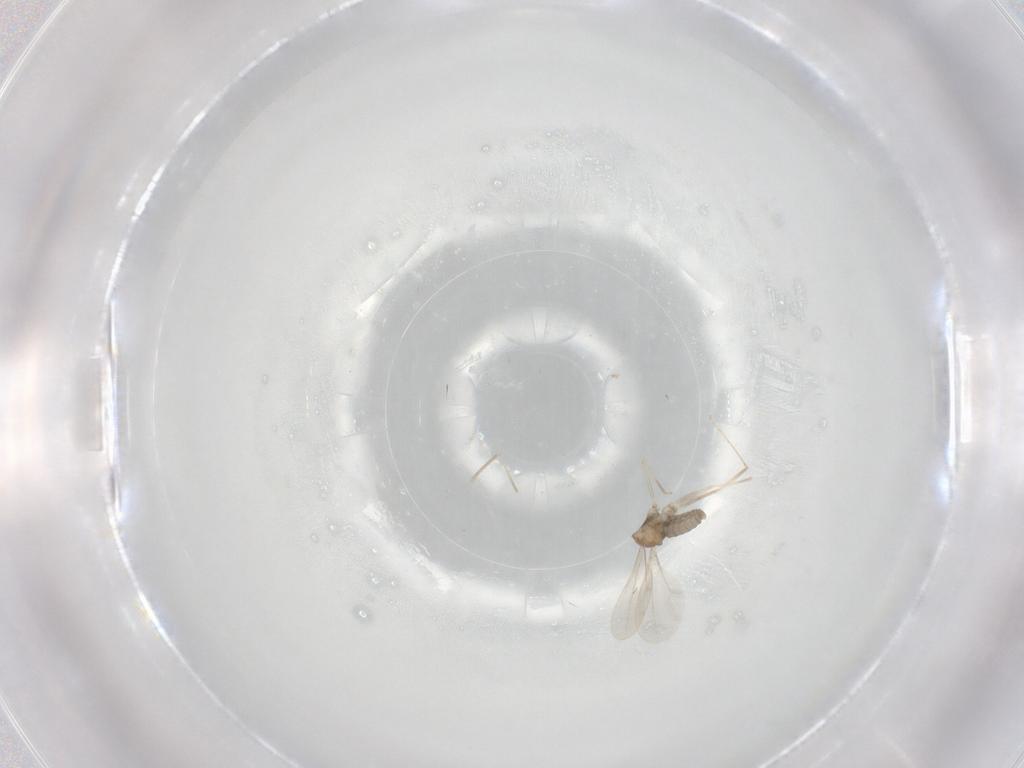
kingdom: Animalia
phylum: Arthropoda
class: Insecta
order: Diptera
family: Cecidomyiidae
